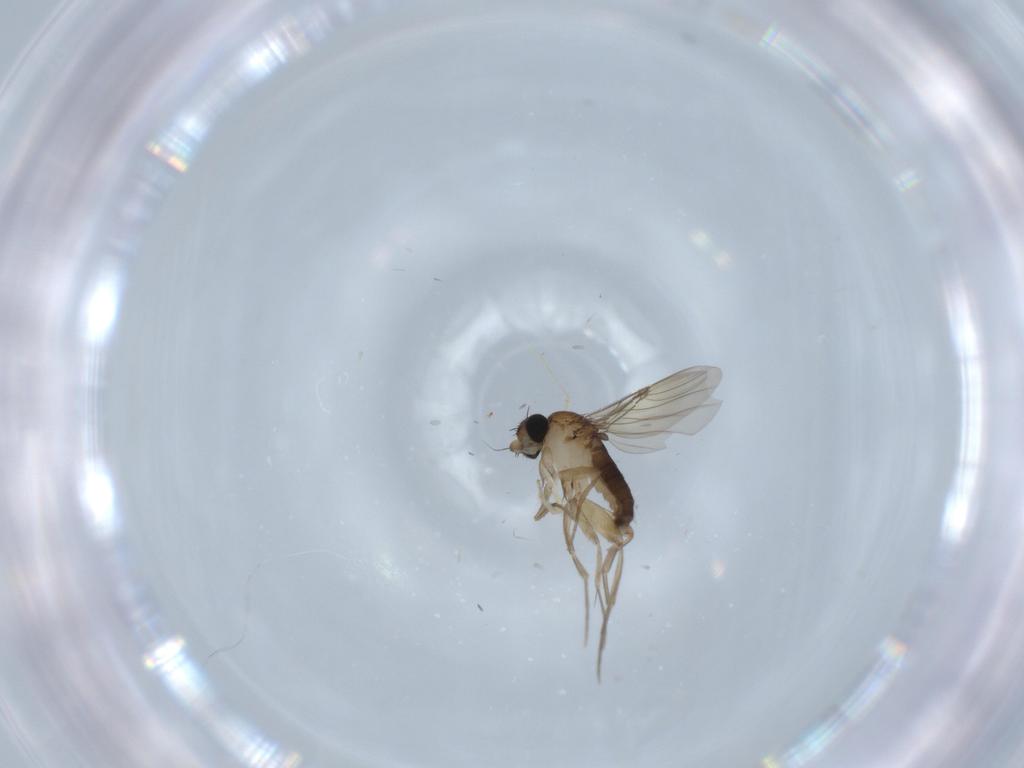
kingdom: Animalia
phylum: Arthropoda
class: Insecta
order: Diptera
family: Cecidomyiidae
